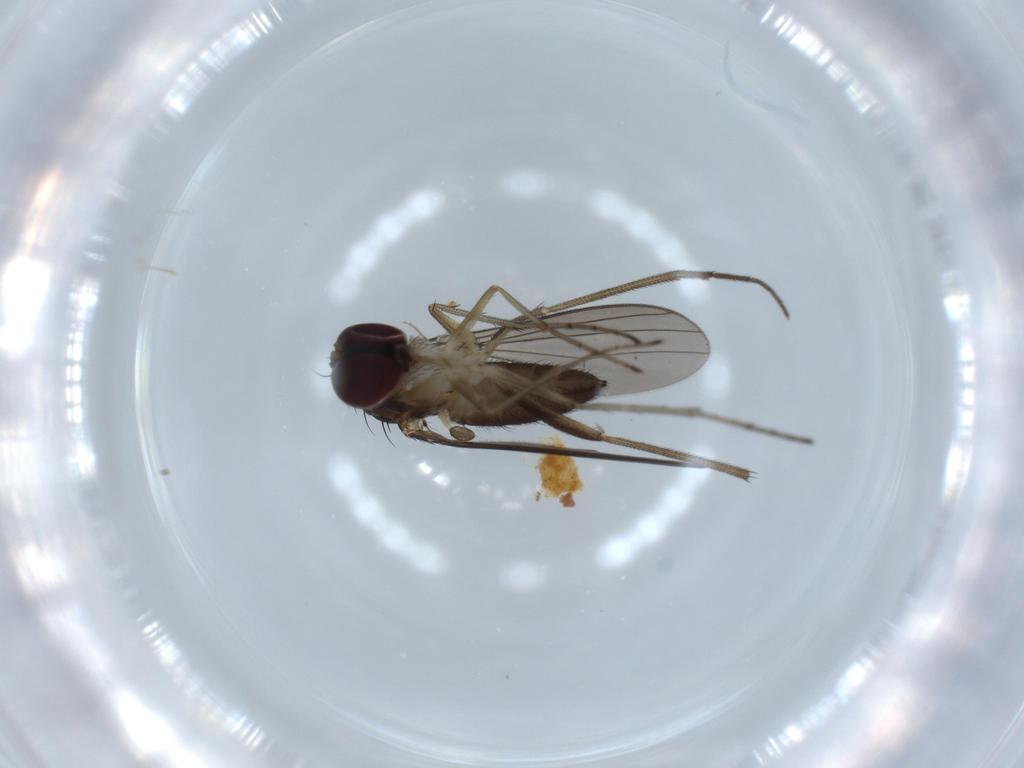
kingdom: Animalia
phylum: Arthropoda
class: Insecta
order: Diptera
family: Dolichopodidae
